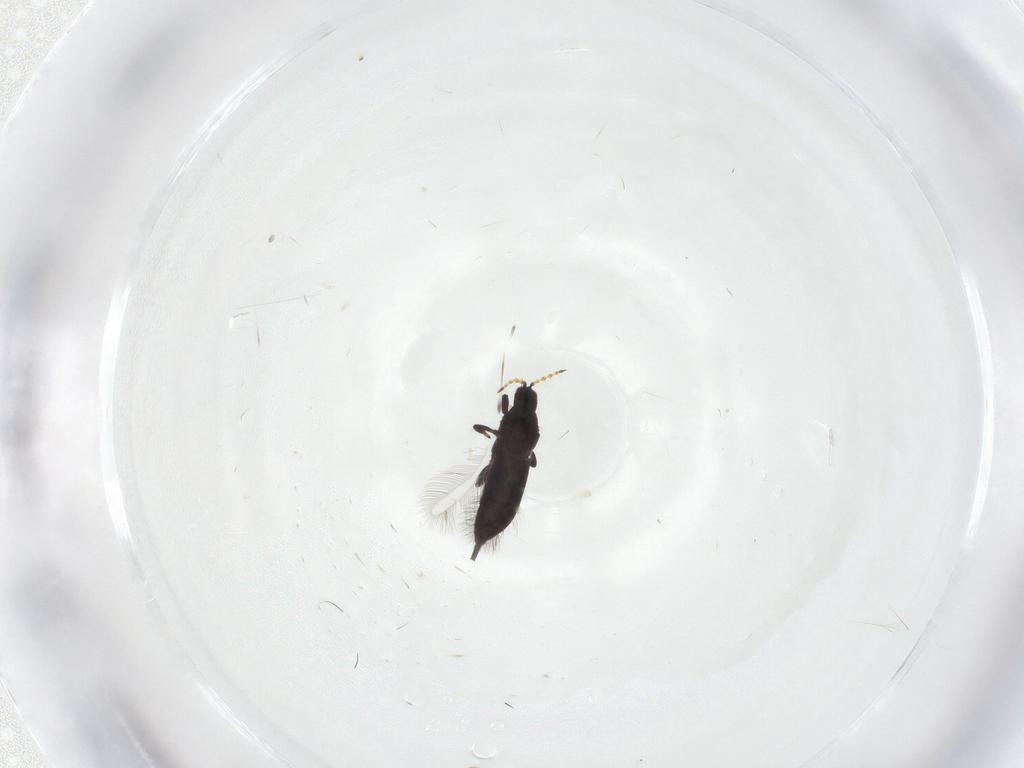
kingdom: Animalia
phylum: Arthropoda
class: Insecta
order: Thysanoptera
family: Phlaeothripidae
